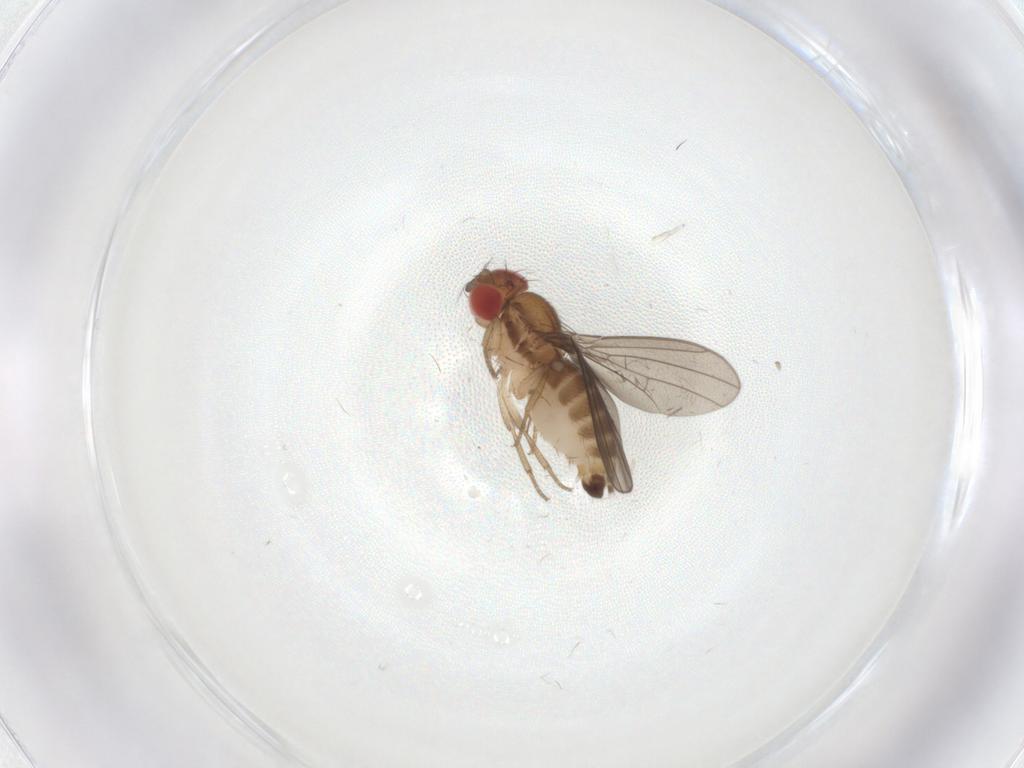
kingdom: Animalia
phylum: Arthropoda
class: Insecta
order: Diptera
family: Drosophilidae
